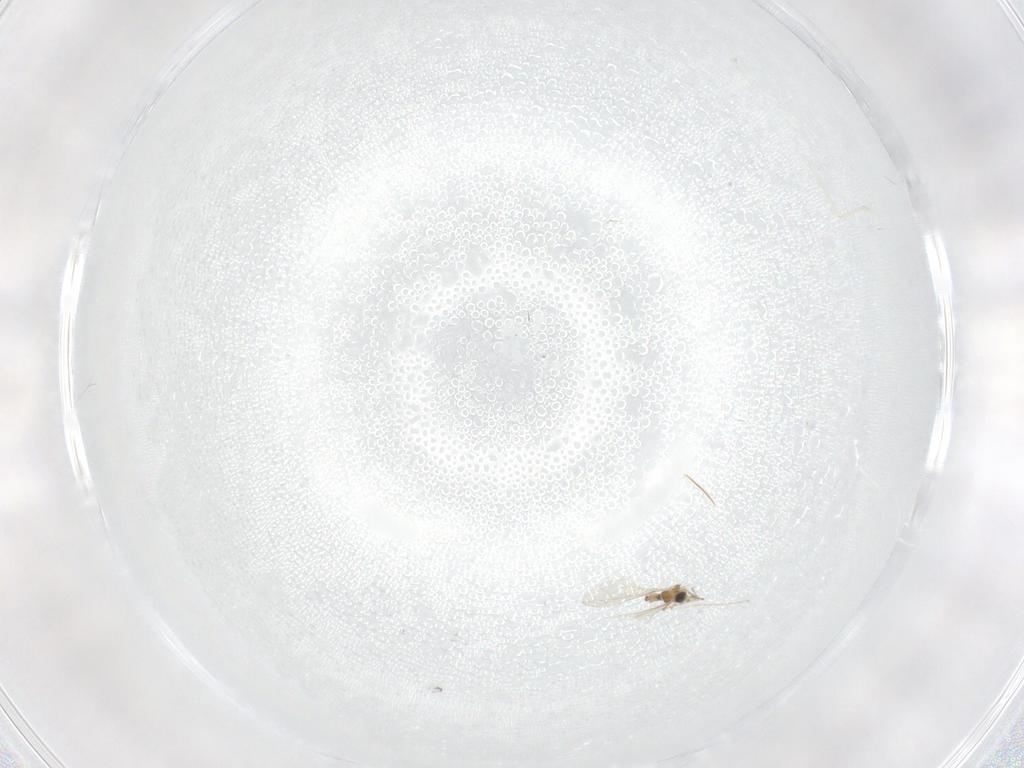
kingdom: Animalia
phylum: Arthropoda
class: Insecta
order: Diptera
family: Cecidomyiidae
